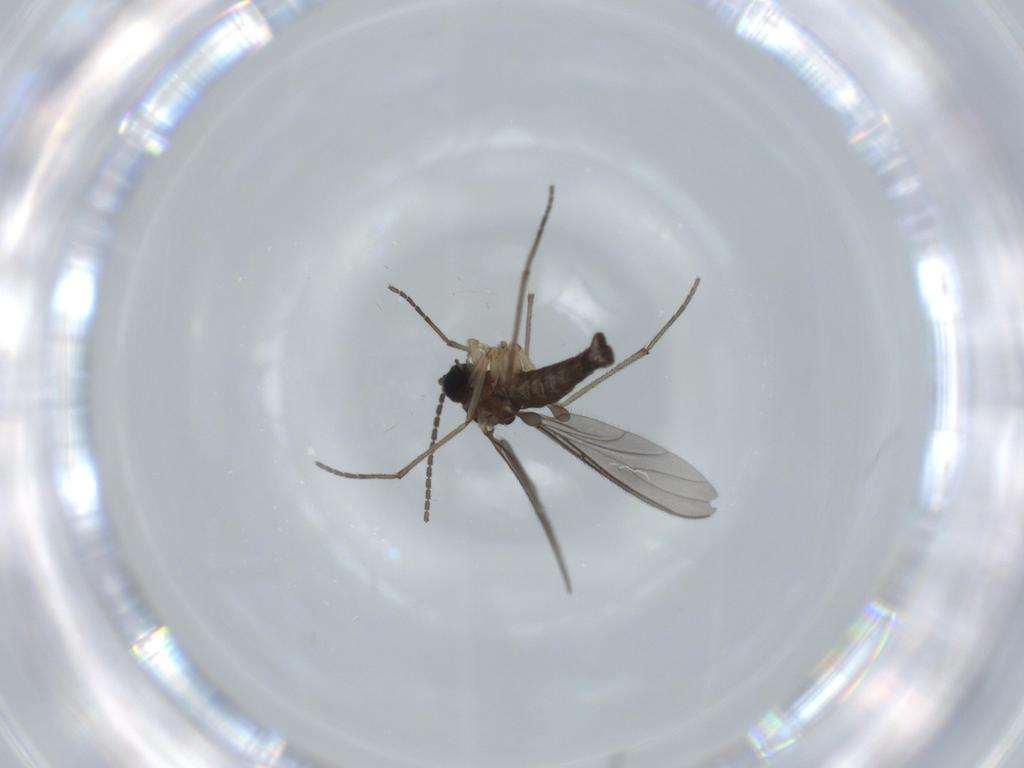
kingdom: Animalia
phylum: Arthropoda
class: Insecta
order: Diptera
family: Sciaridae
